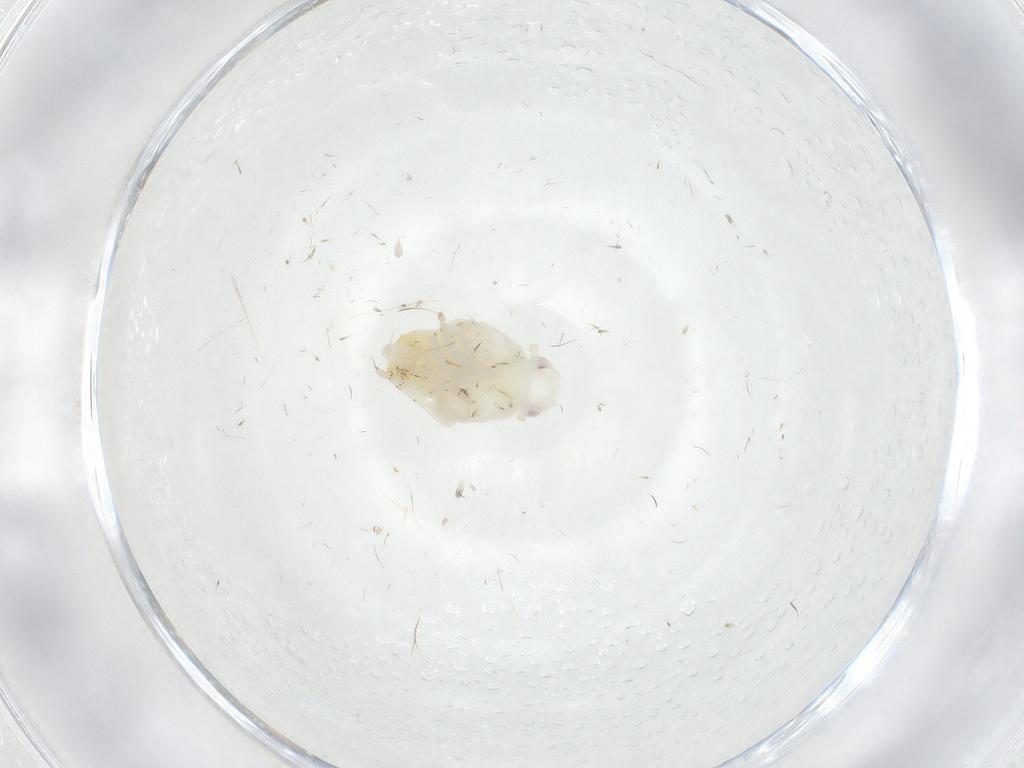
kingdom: Animalia
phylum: Arthropoda
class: Insecta
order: Hemiptera
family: Flatidae
